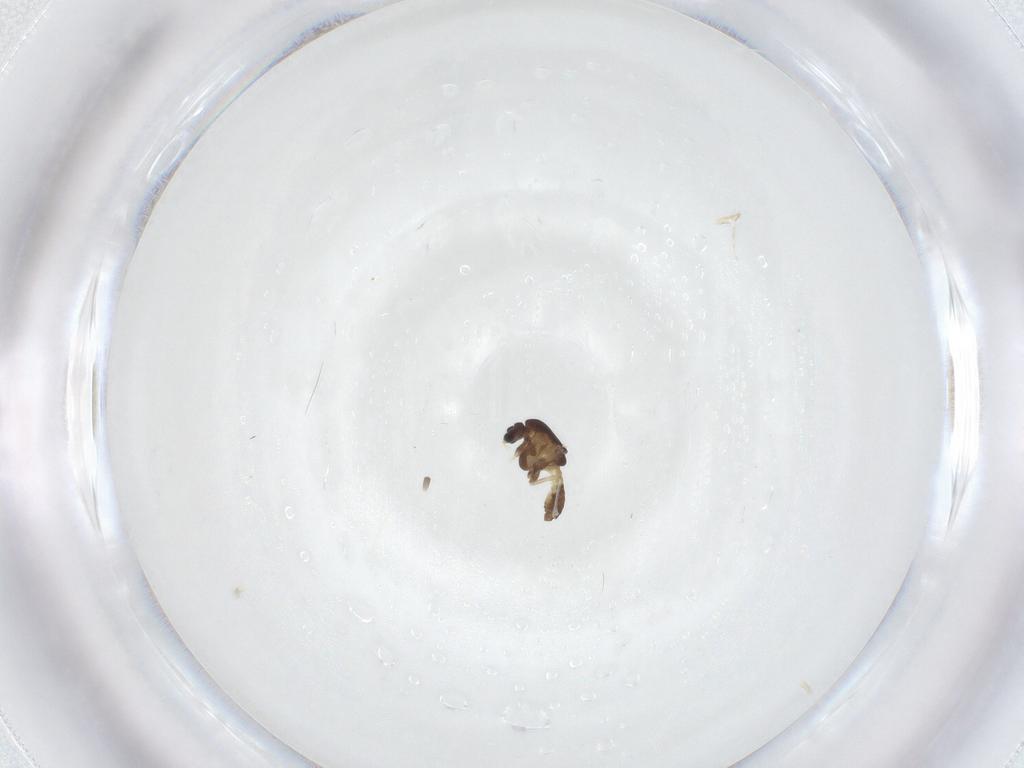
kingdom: Animalia
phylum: Arthropoda
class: Insecta
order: Diptera
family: Chironomidae
